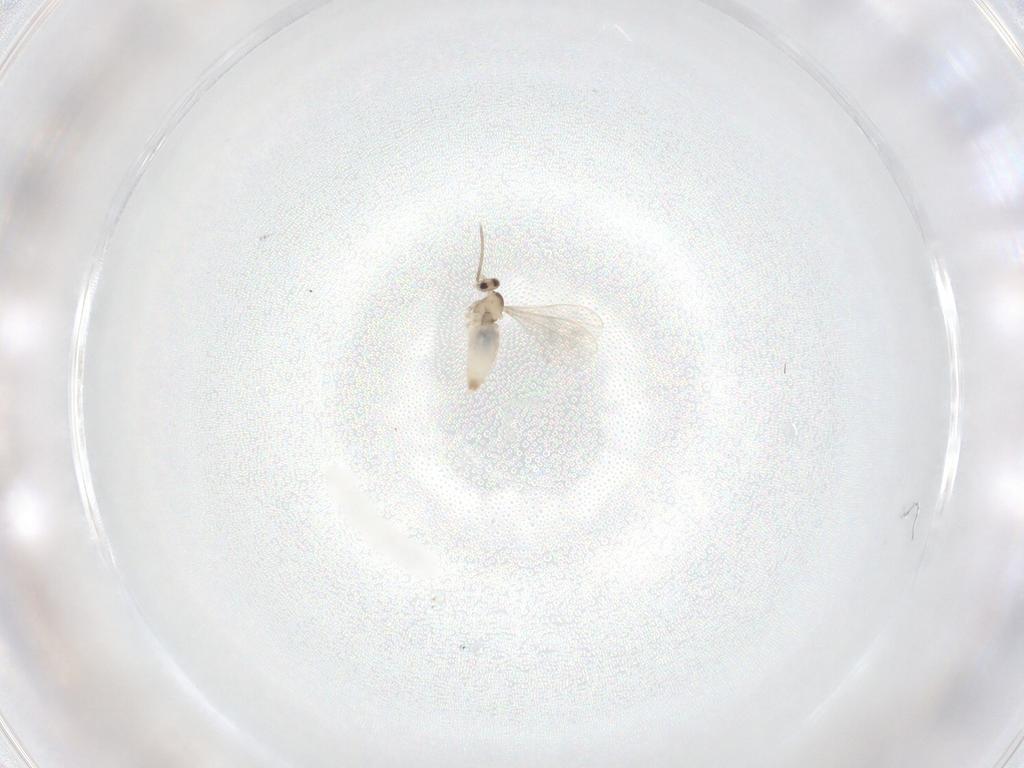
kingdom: Animalia
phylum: Arthropoda
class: Insecta
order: Diptera
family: Cecidomyiidae
